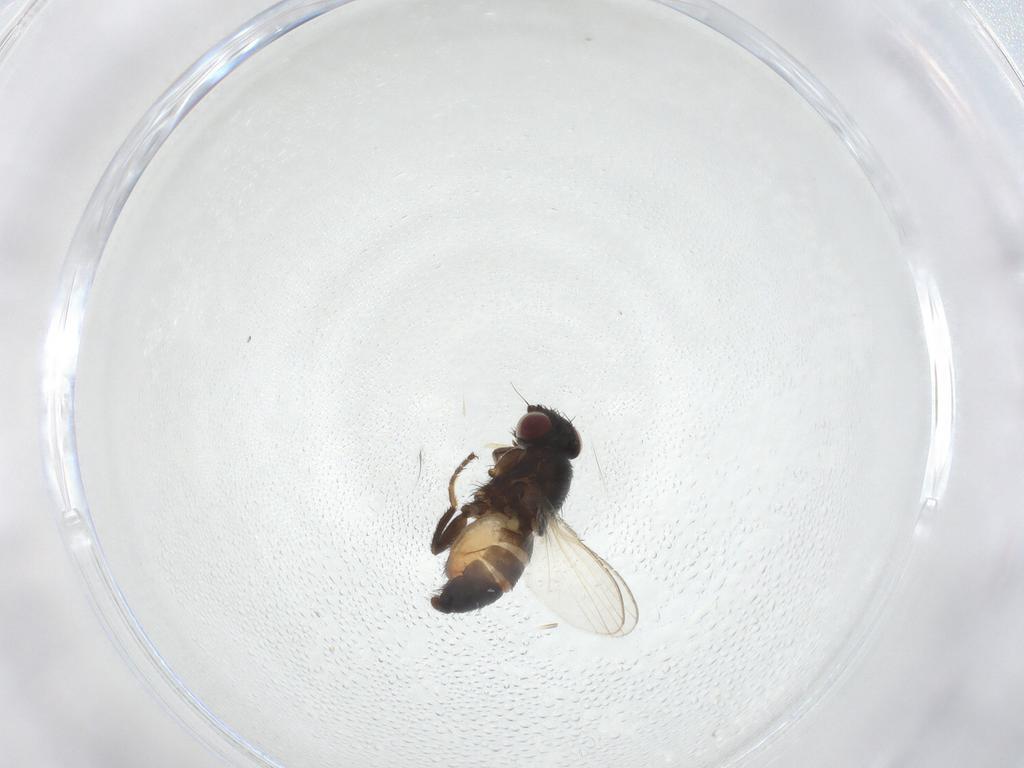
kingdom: Animalia
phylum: Arthropoda
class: Insecta
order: Diptera
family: Milichiidae
